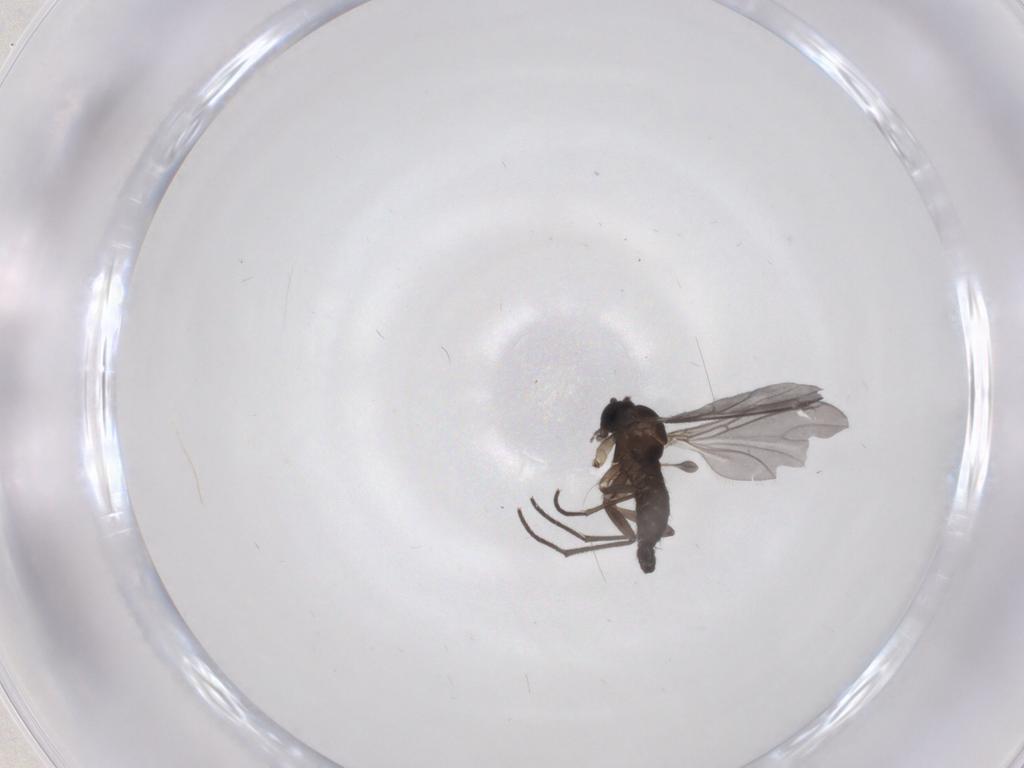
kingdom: Animalia
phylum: Arthropoda
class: Insecta
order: Diptera
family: Sciaridae
